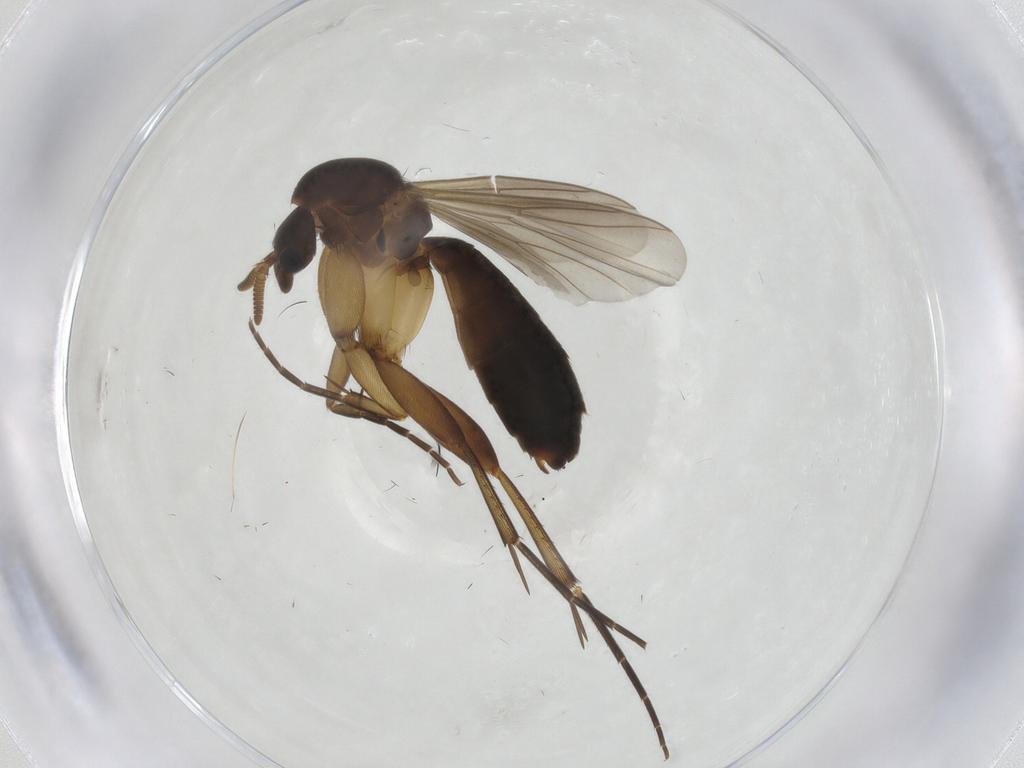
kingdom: Animalia
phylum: Arthropoda
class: Insecta
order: Diptera
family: Mycetophilidae
